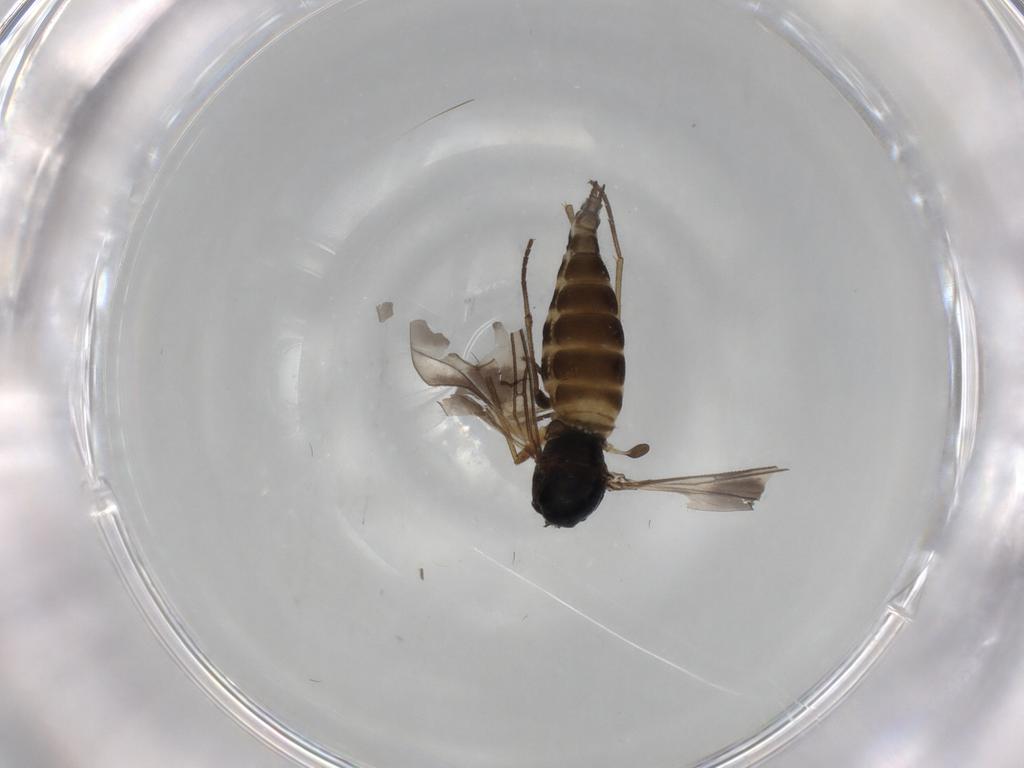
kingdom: Animalia
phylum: Arthropoda
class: Insecta
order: Diptera
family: Sciaridae
